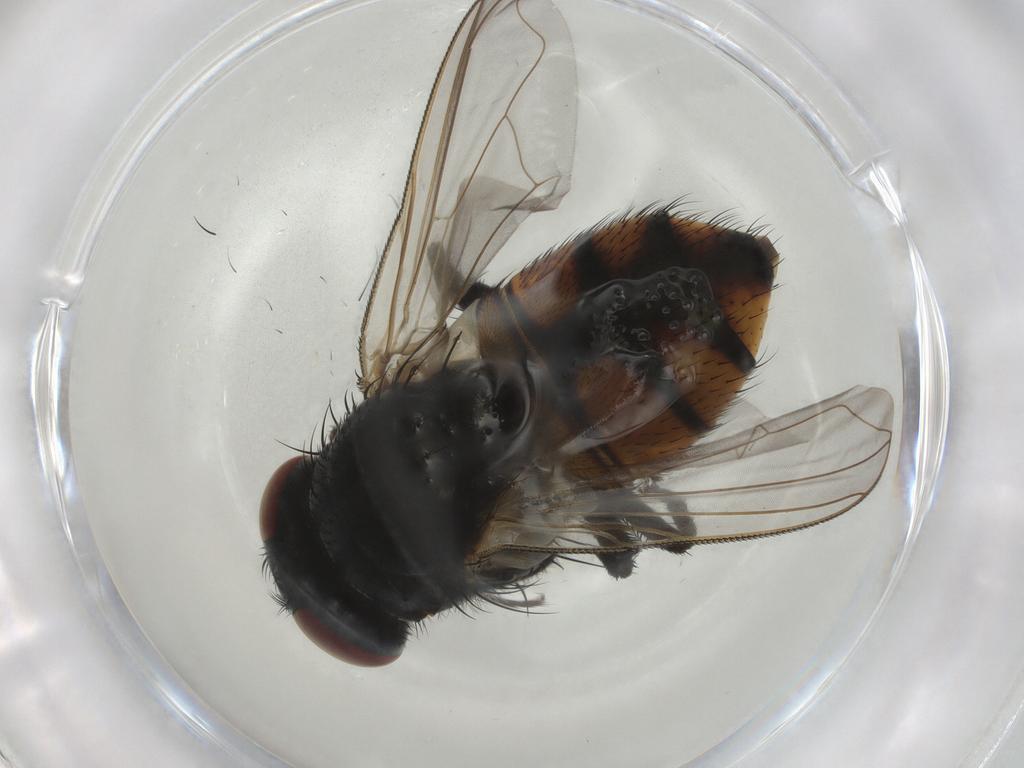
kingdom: Animalia
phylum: Arthropoda
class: Insecta
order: Diptera
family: Muscidae
